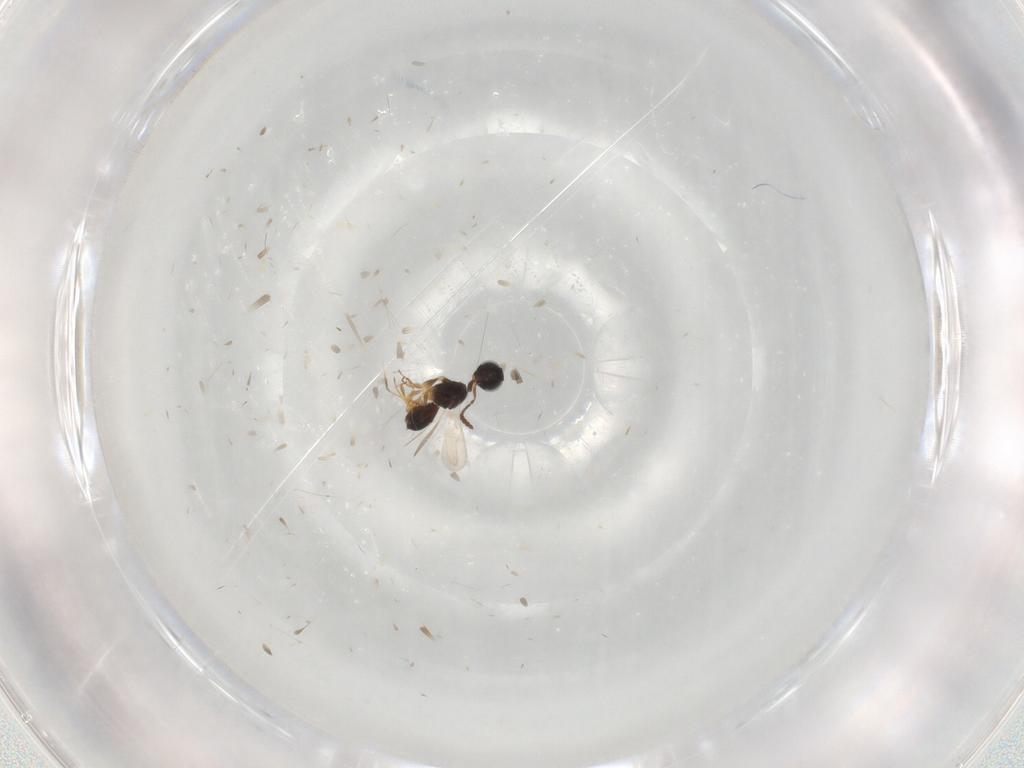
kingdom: Animalia
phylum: Arthropoda
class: Insecta
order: Hymenoptera
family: Scelionidae
